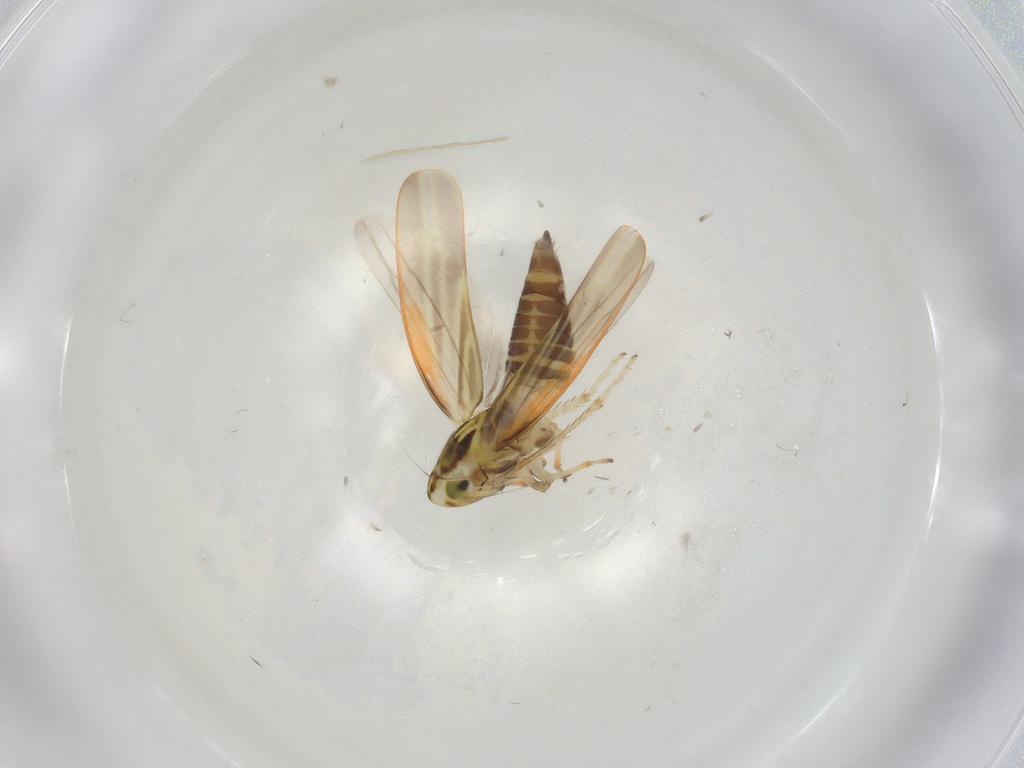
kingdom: Animalia
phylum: Arthropoda
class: Insecta
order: Hemiptera
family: Cicadellidae
